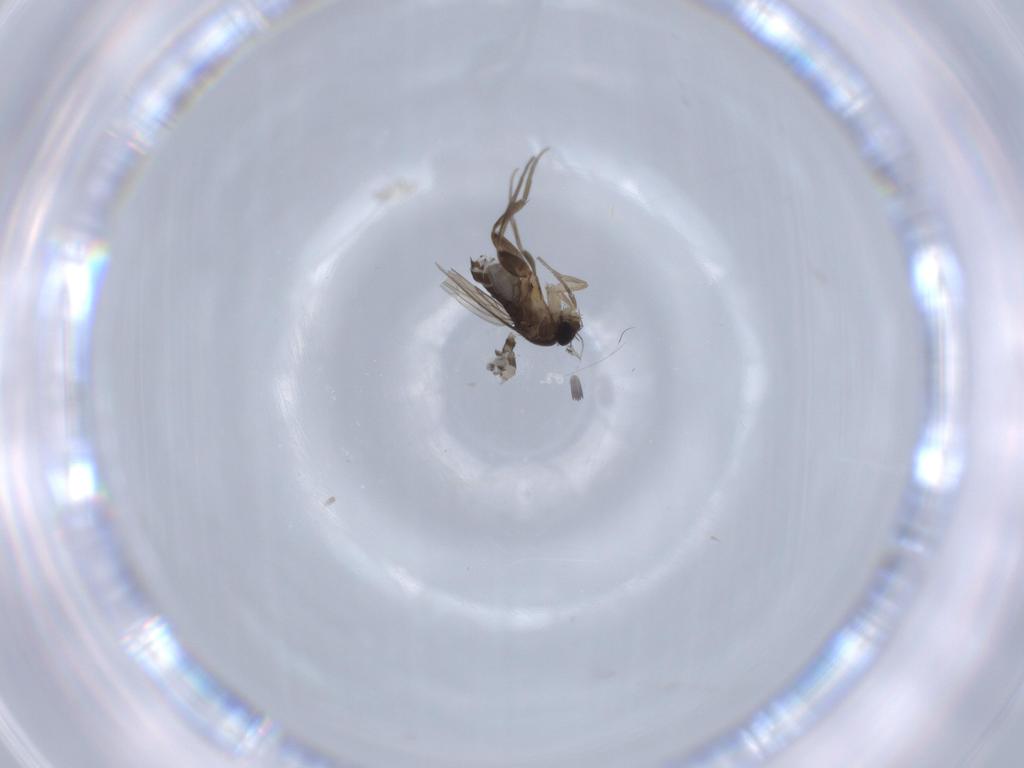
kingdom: Animalia
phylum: Arthropoda
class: Insecta
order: Diptera
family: Phoridae
